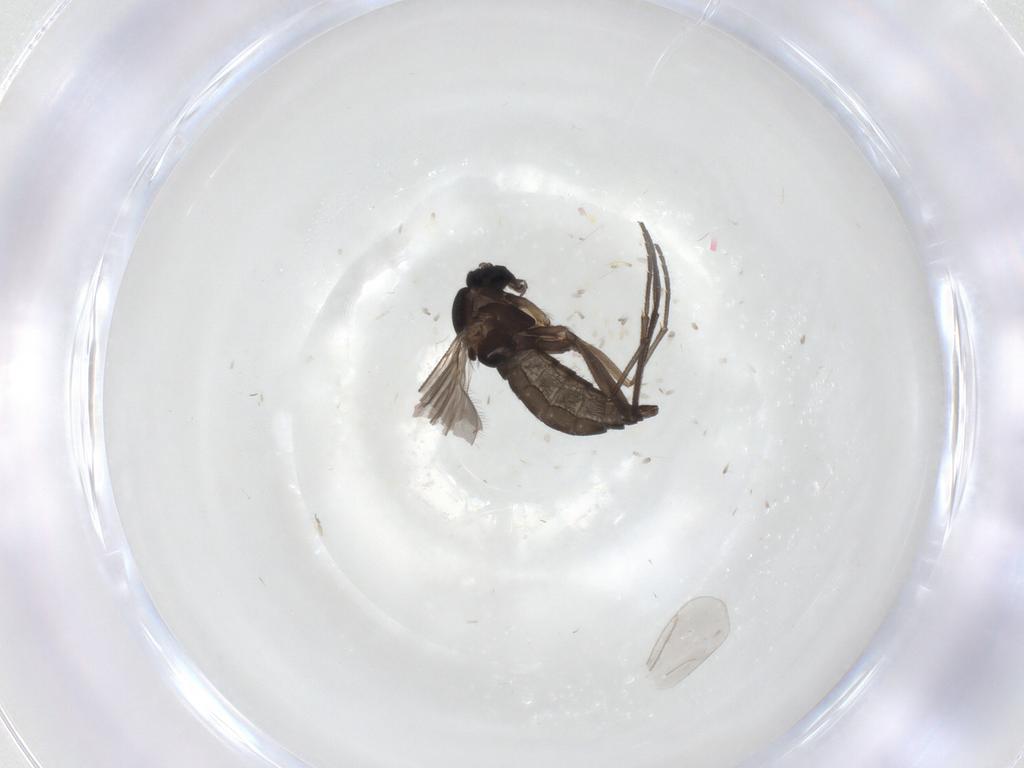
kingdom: Animalia
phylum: Arthropoda
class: Insecta
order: Diptera
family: Sciaridae
